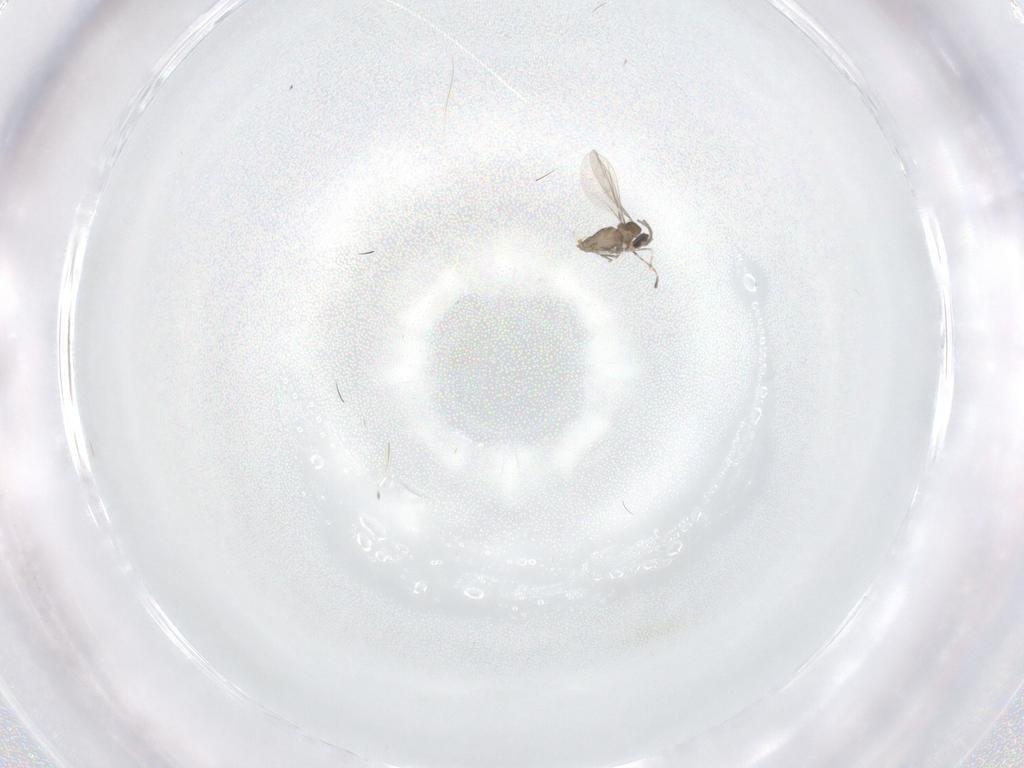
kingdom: Animalia
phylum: Arthropoda
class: Insecta
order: Diptera
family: Cecidomyiidae
